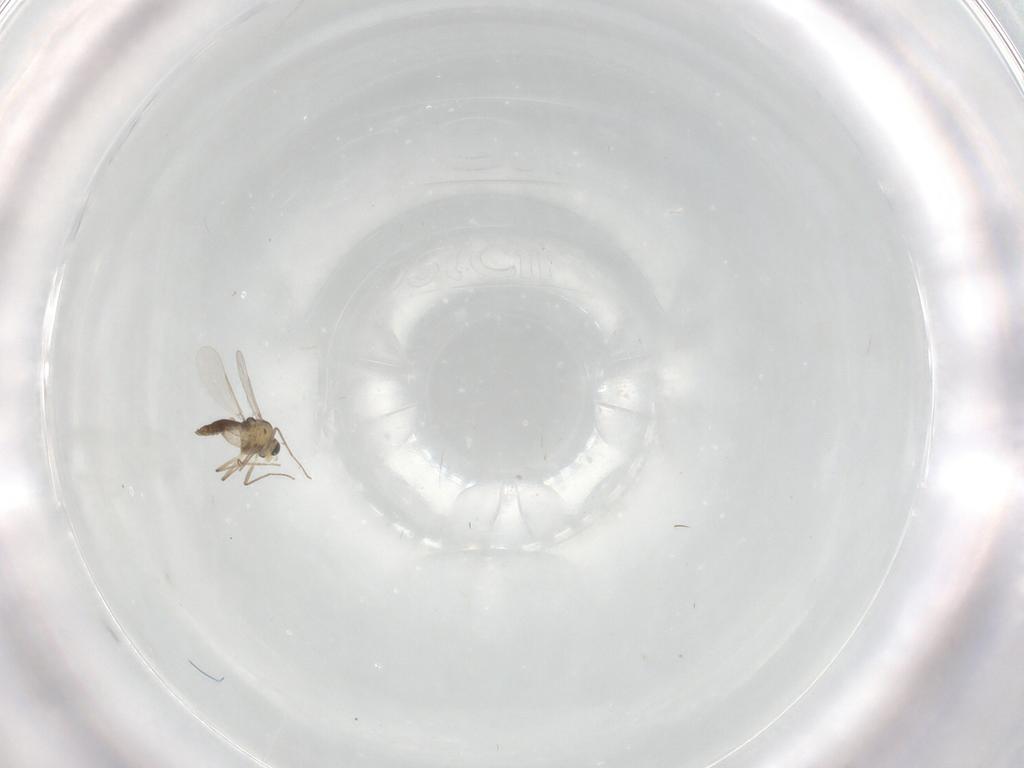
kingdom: Animalia
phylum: Arthropoda
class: Insecta
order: Diptera
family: Chironomidae
